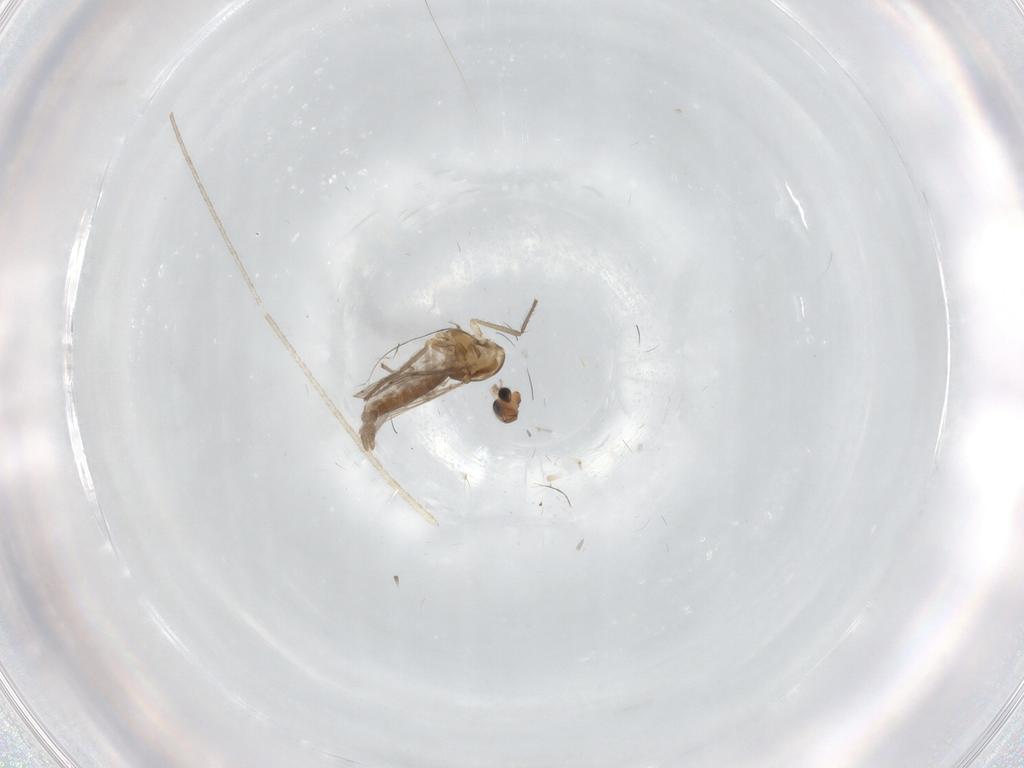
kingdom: Animalia
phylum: Arthropoda
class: Insecta
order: Diptera
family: Chironomidae
